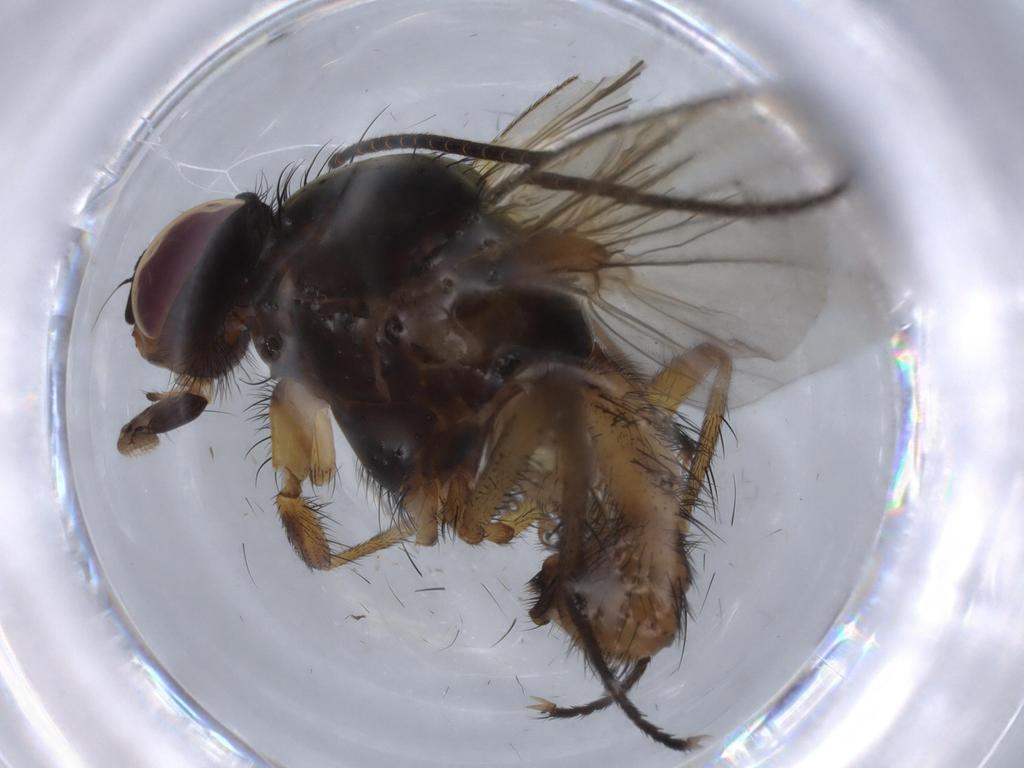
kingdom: Animalia
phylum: Arthropoda
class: Insecta
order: Diptera
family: Anthomyiidae
